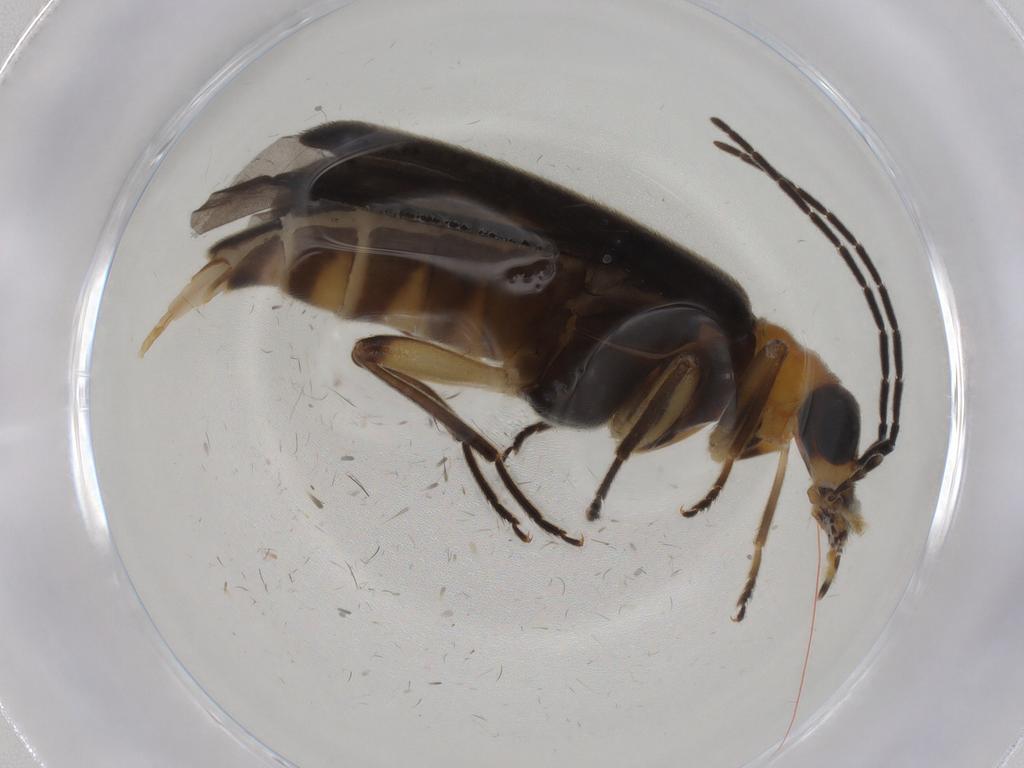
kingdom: Animalia
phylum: Arthropoda
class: Insecta
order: Coleoptera
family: Oedemeridae
